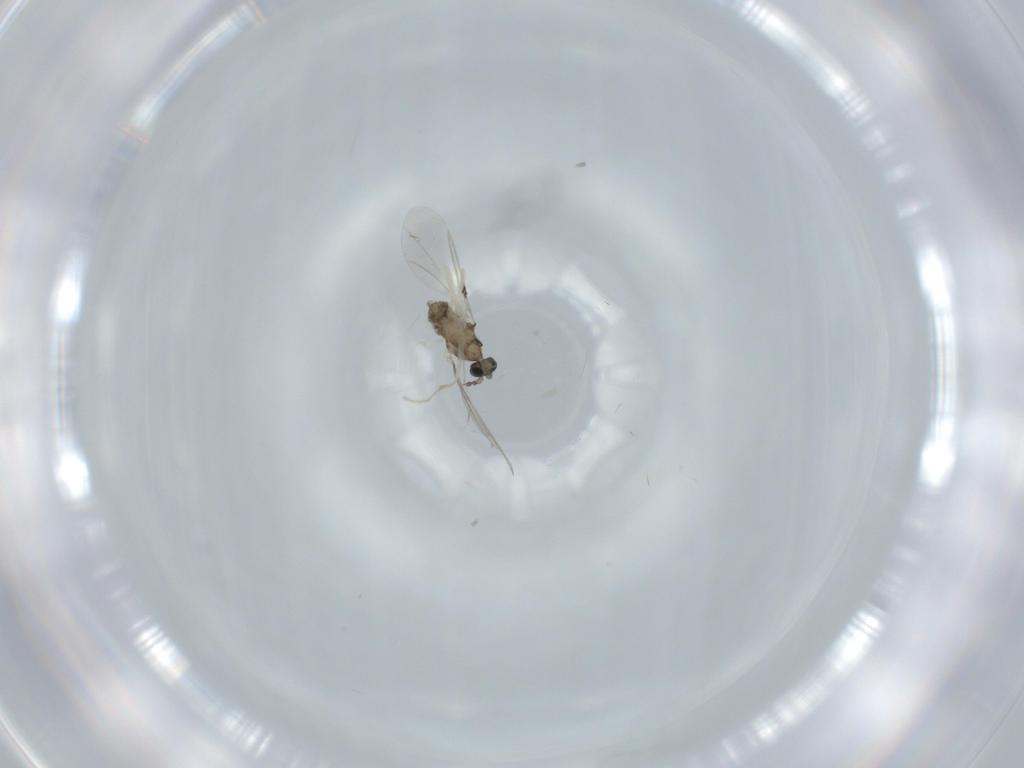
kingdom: Animalia
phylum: Arthropoda
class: Insecta
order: Diptera
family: Cecidomyiidae
